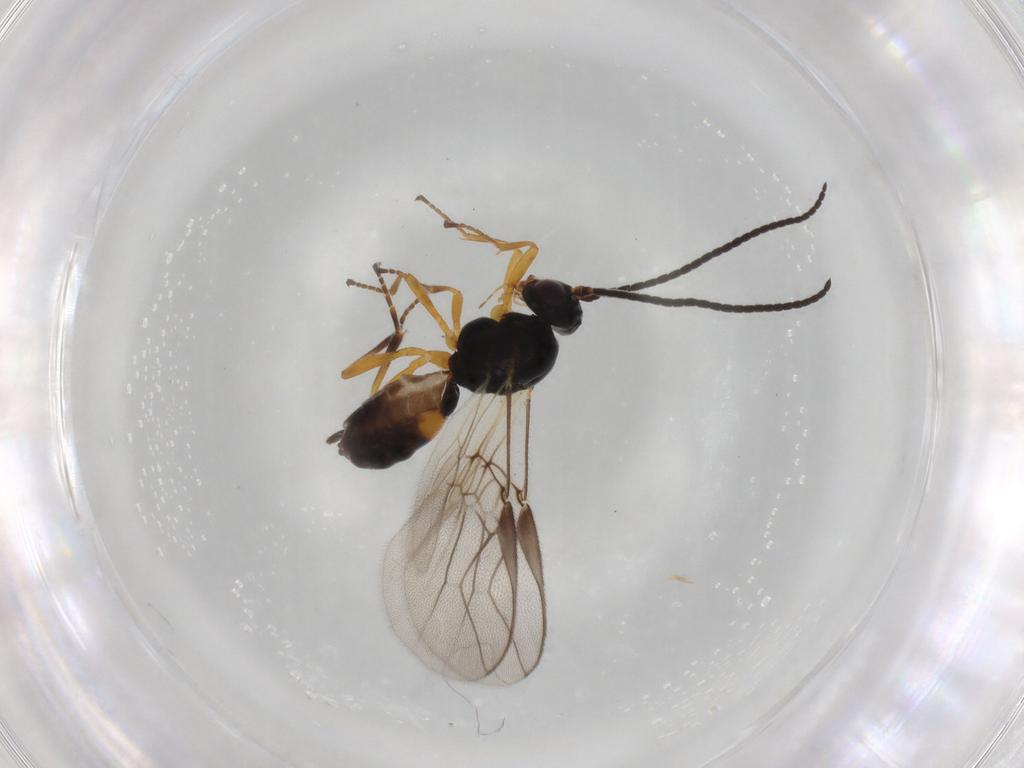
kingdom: Animalia
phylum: Arthropoda
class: Insecta
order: Hymenoptera
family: Braconidae
